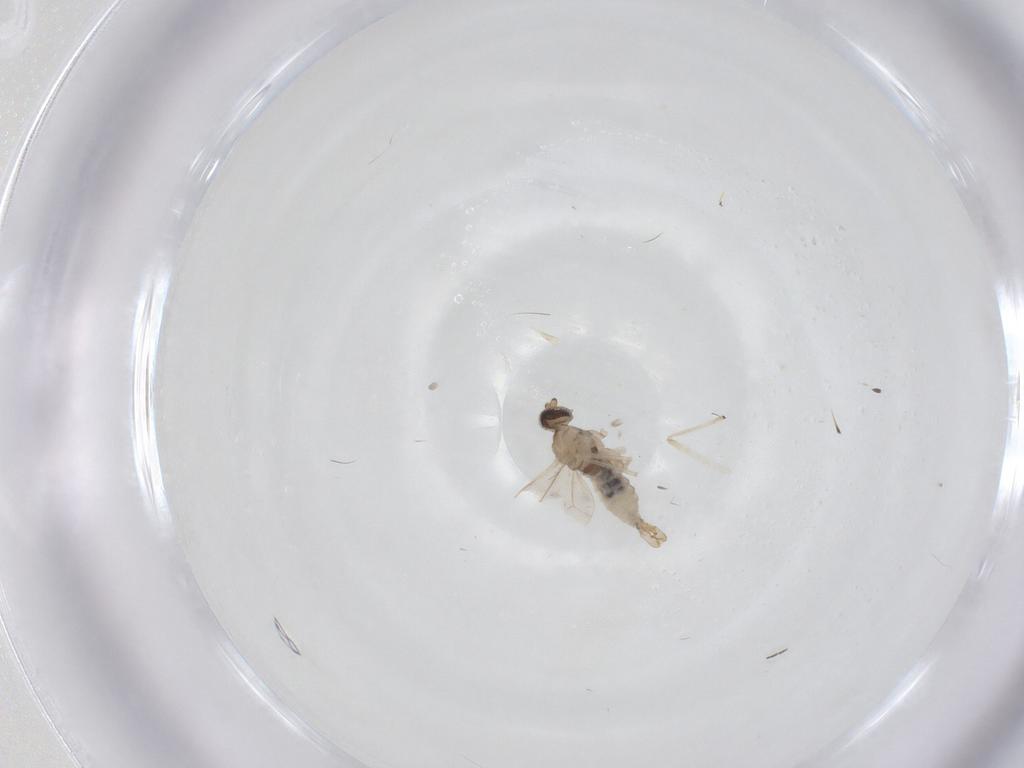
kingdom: Animalia
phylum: Arthropoda
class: Insecta
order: Diptera
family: Cecidomyiidae
